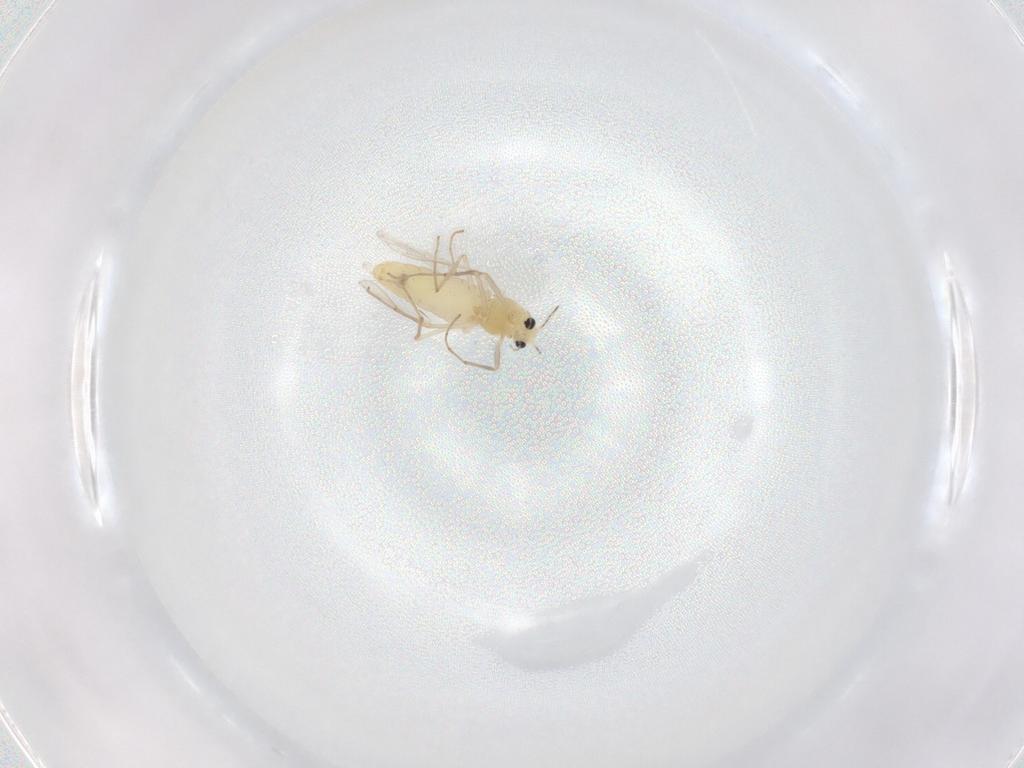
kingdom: Animalia
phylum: Arthropoda
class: Insecta
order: Diptera
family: Chironomidae
